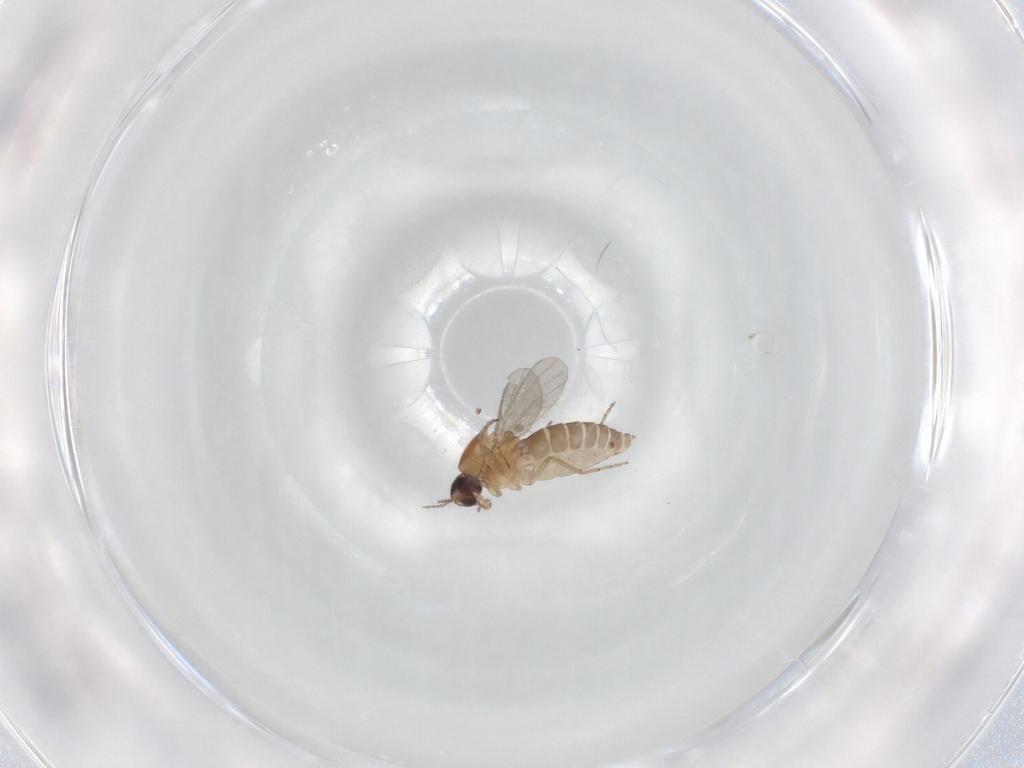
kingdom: Animalia
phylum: Arthropoda
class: Insecta
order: Diptera
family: Ceratopogonidae
